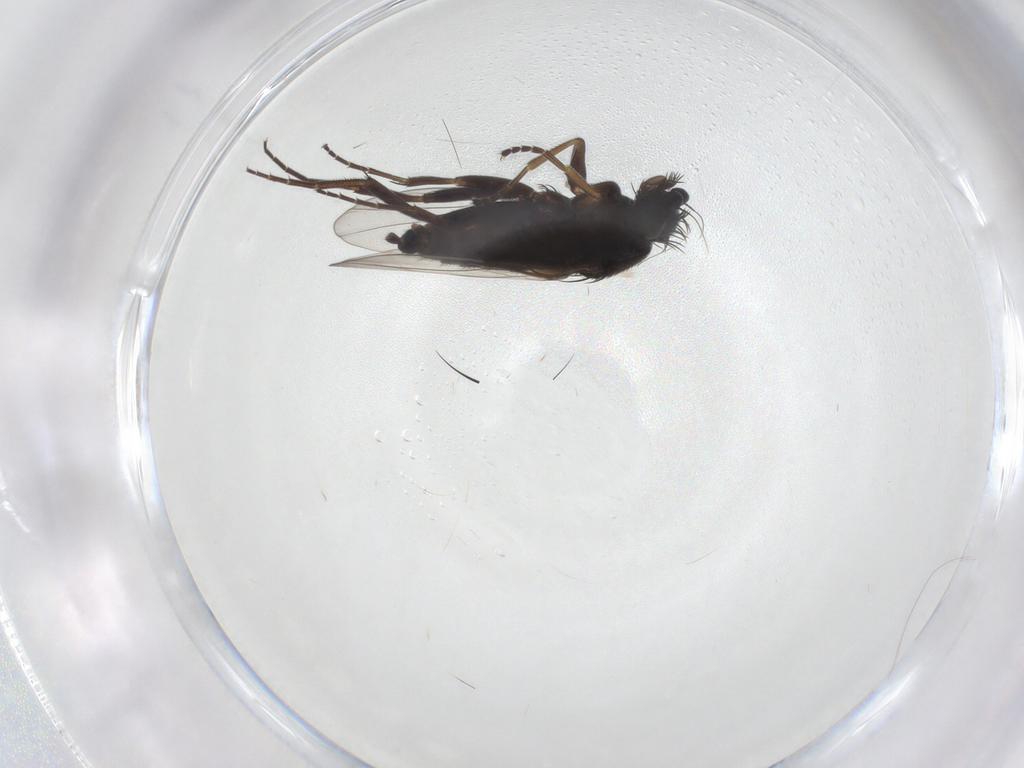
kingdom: Animalia
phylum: Arthropoda
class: Insecta
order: Diptera
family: Phoridae
